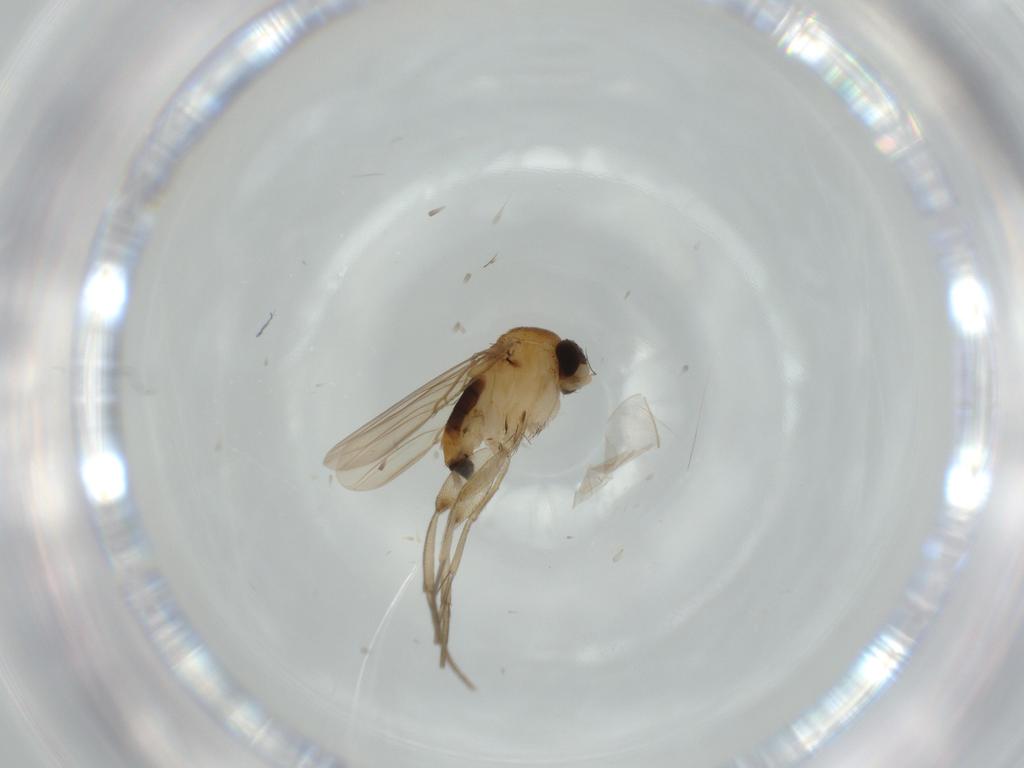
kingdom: Animalia
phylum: Arthropoda
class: Insecta
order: Diptera
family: Phoridae
